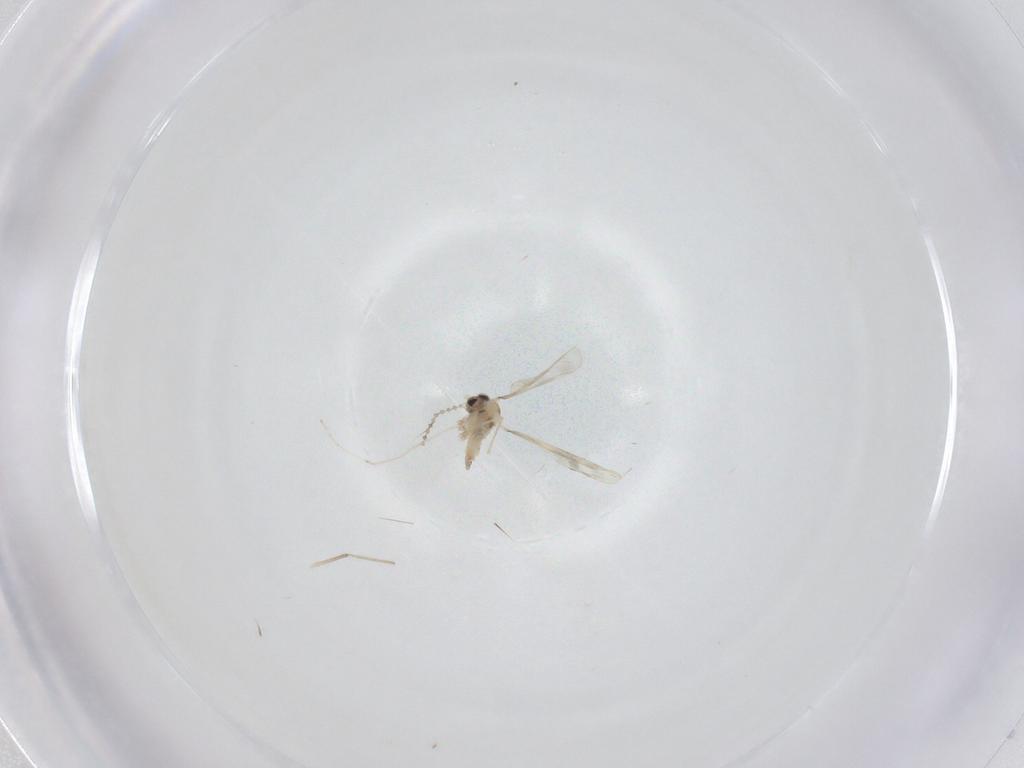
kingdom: Animalia
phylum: Arthropoda
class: Insecta
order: Diptera
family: Cecidomyiidae
